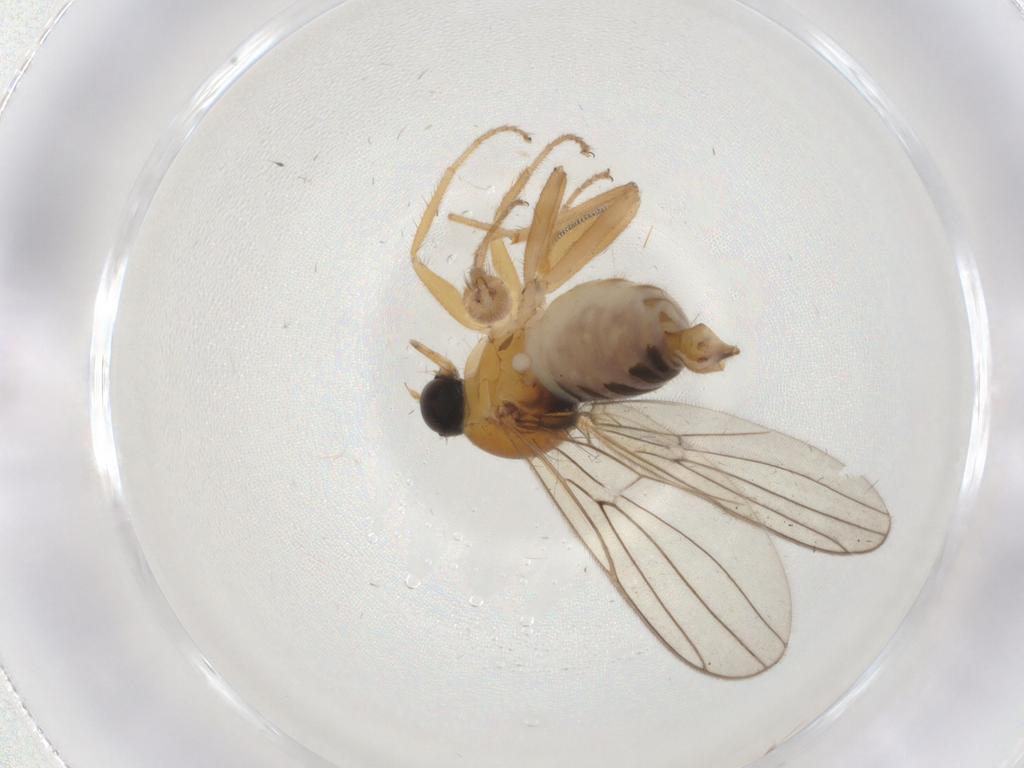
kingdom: Animalia
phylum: Arthropoda
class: Insecta
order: Diptera
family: Hybotidae
